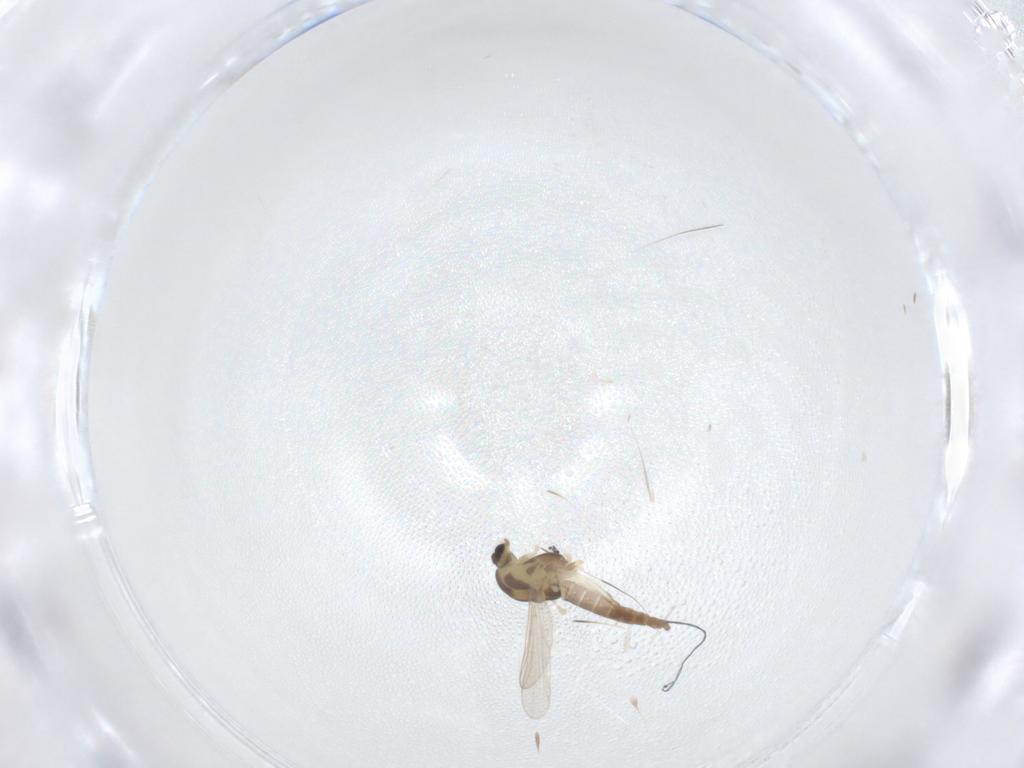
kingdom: Animalia
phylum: Arthropoda
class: Insecta
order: Diptera
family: Chironomidae
